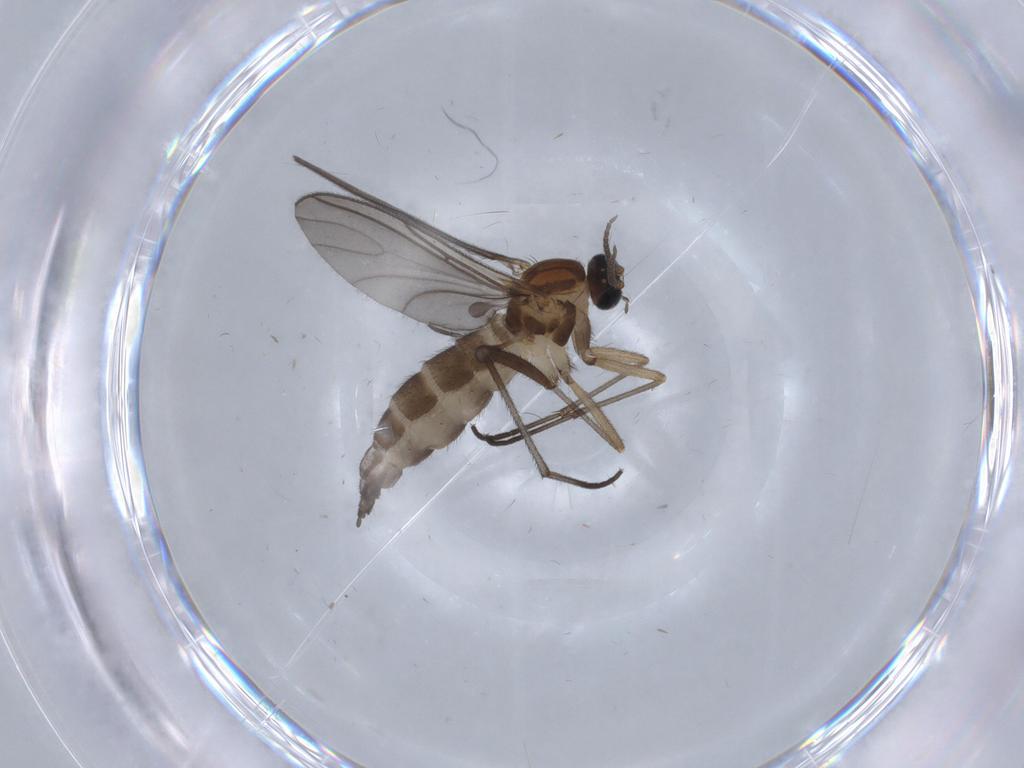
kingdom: Animalia
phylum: Arthropoda
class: Insecta
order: Diptera
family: Sciaridae
